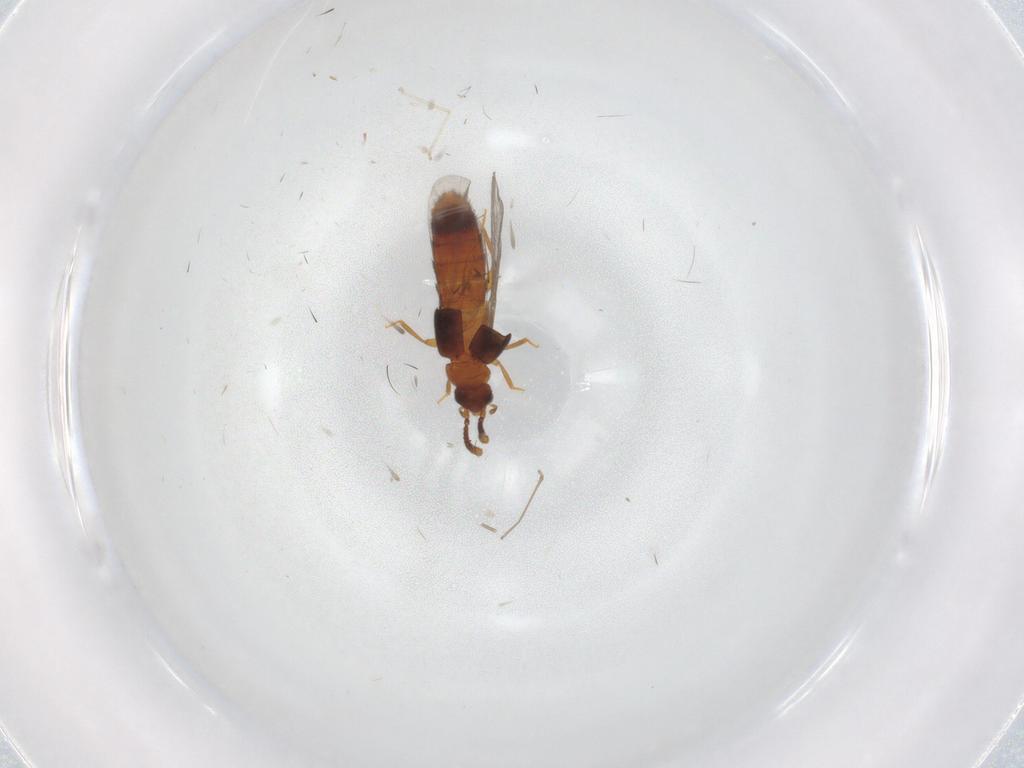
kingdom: Animalia
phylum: Arthropoda
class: Insecta
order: Coleoptera
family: Staphylinidae
